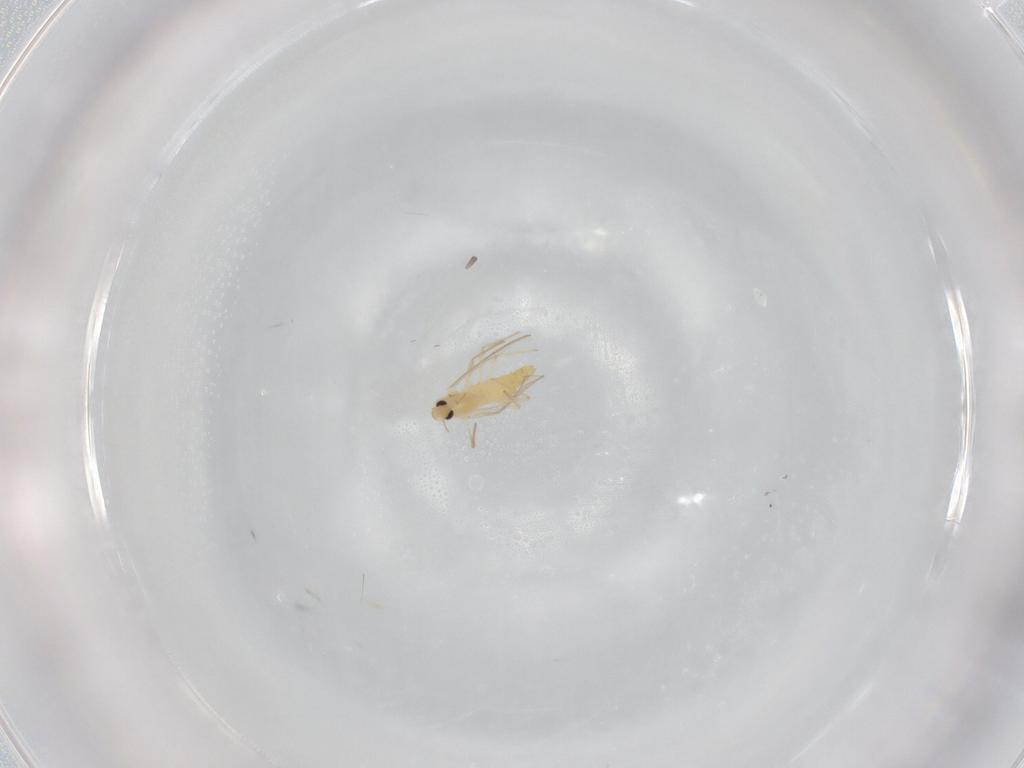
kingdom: Animalia
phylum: Arthropoda
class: Insecta
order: Diptera
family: Chironomidae
